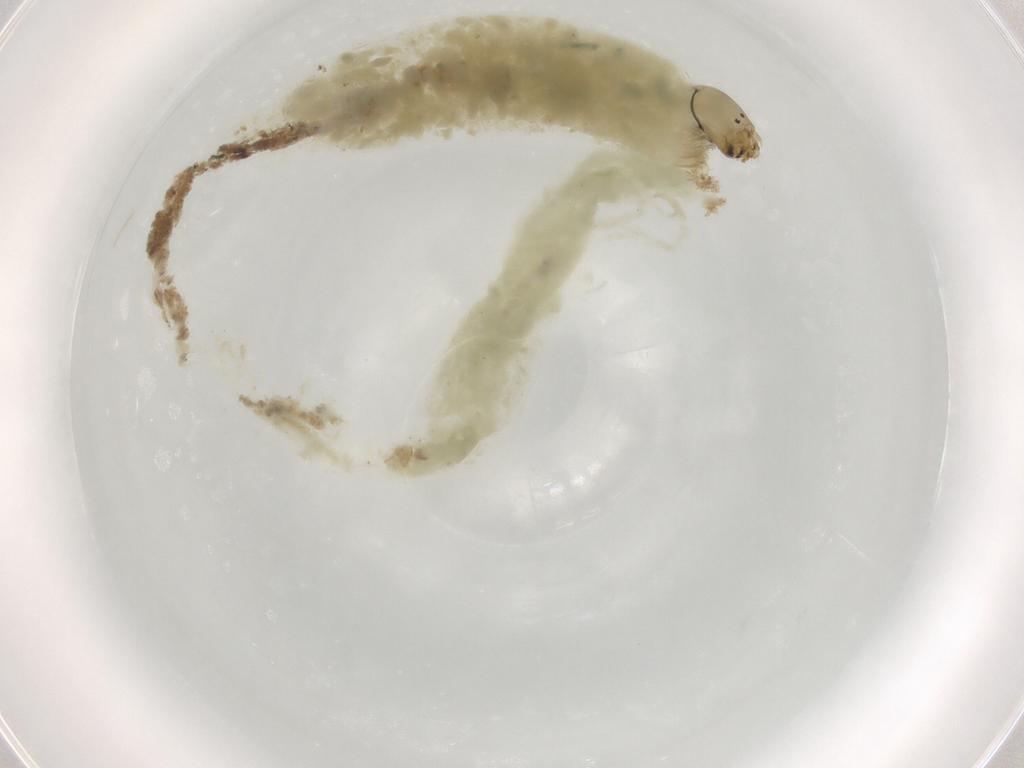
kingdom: Animalia
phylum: Arthropoda
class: Insecta
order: Diptera
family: Chironomidae
